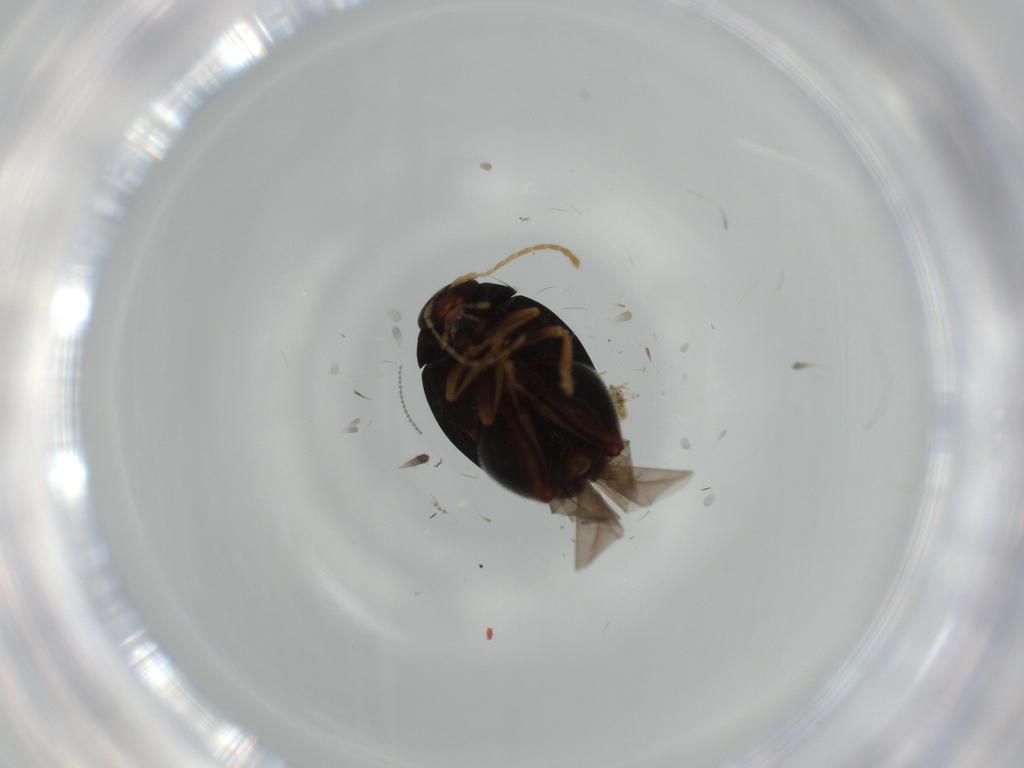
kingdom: Animalia
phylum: Arthropoda
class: Insecta
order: Coleoptera
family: Chrysomelidae
